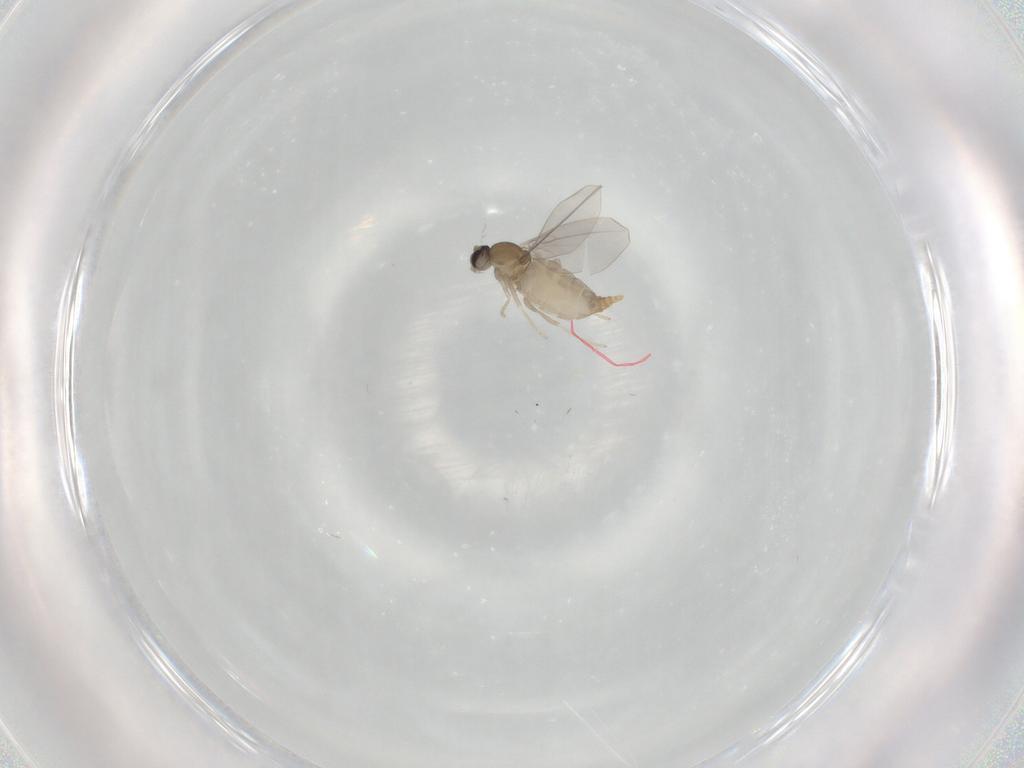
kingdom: Animalia
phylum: Arthropoda
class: Insecta
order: Diptera
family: Cecidomyiidae
